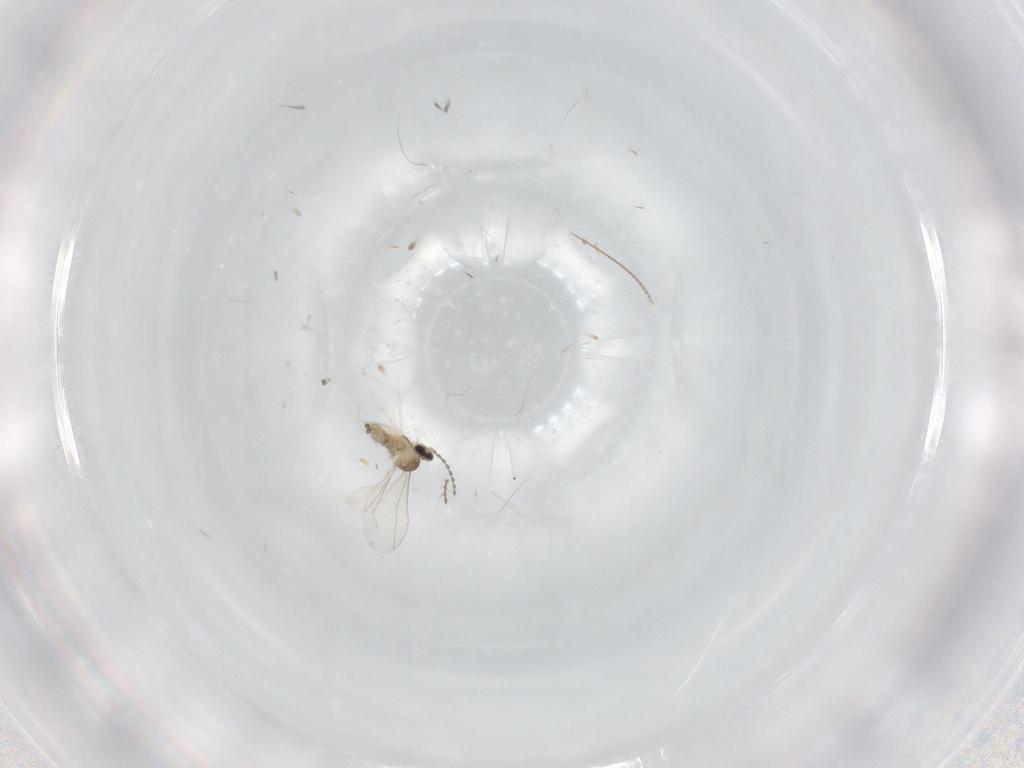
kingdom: Animalia
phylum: Arthropoda
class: Insecta
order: Diptera
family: Cecidomyiidae
